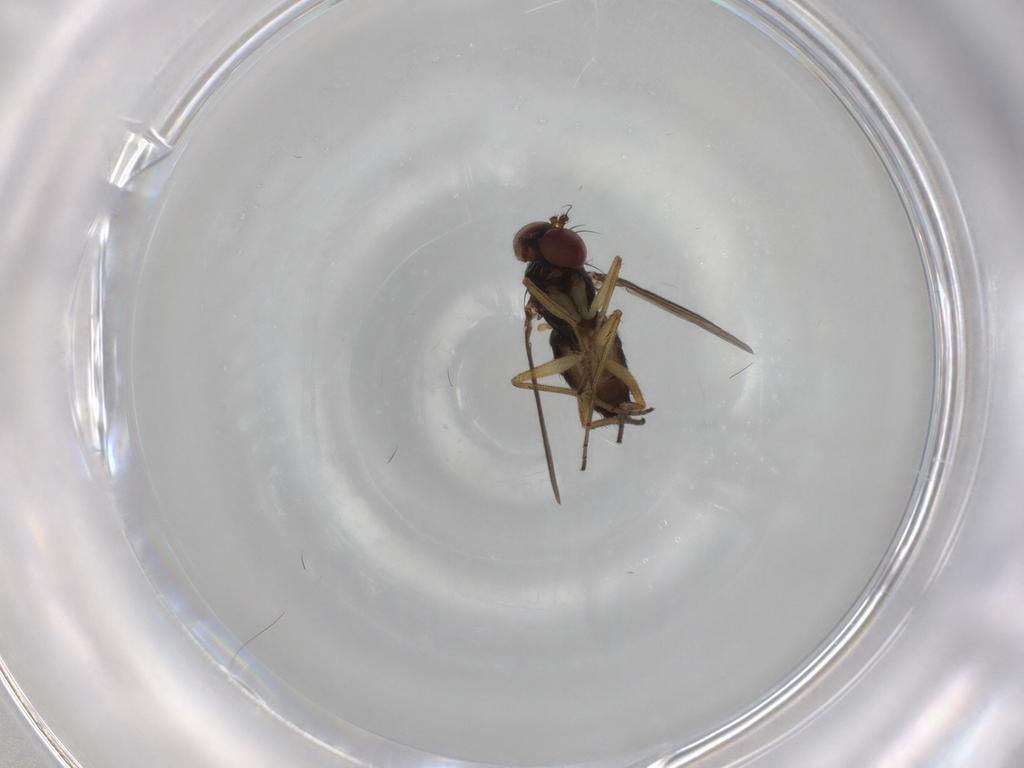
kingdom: Animalia
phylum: Arthropoda
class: Insecta
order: Diptera
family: Dolichopodidae
